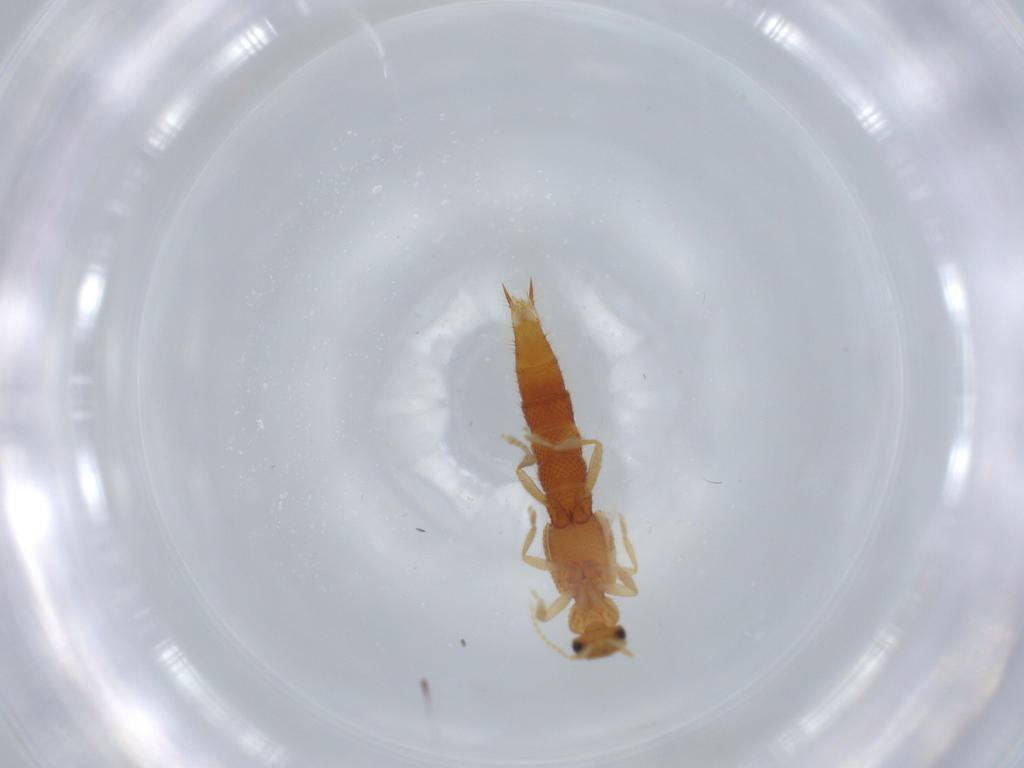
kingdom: Animalia
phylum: Arthropoda
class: Insecta
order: Coleoptera
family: Staphylinidae
